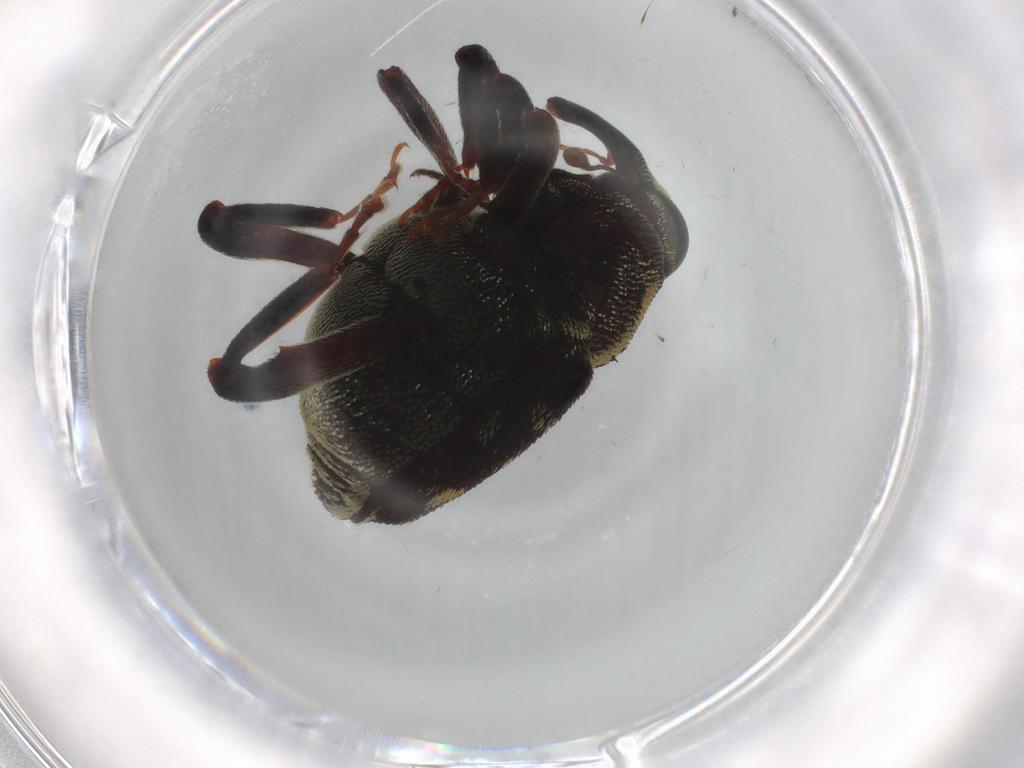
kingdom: Animalia
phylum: Arthropoda
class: Insecta
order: Coleoptera
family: Curculionidae
